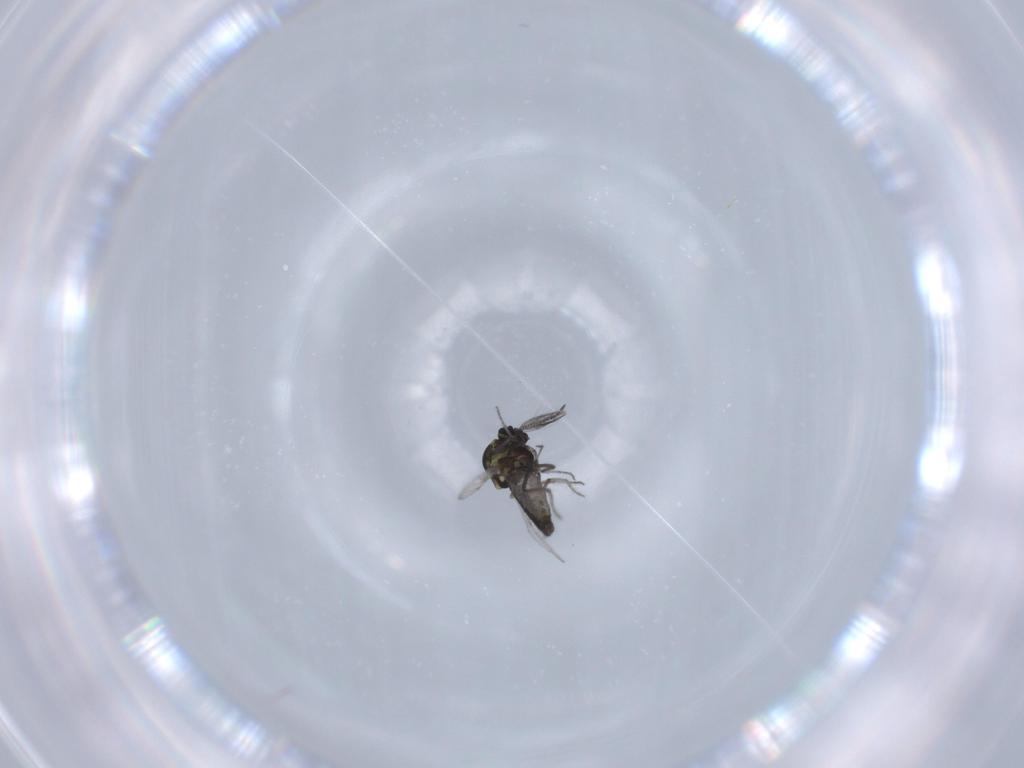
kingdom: Animalia
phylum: Arthropoda
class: Insecta
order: Diptera
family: Ceratopogonidae
